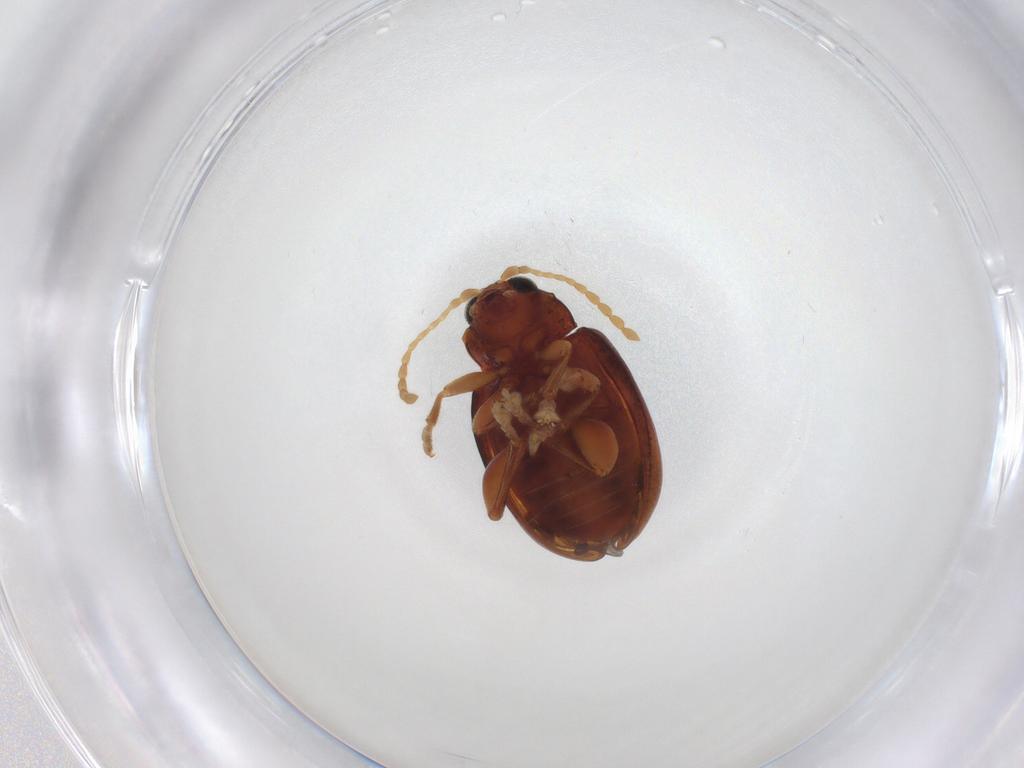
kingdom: Animalia
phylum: Arthropoda
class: Insecta
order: Coleoptera
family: Chrysomelidae
